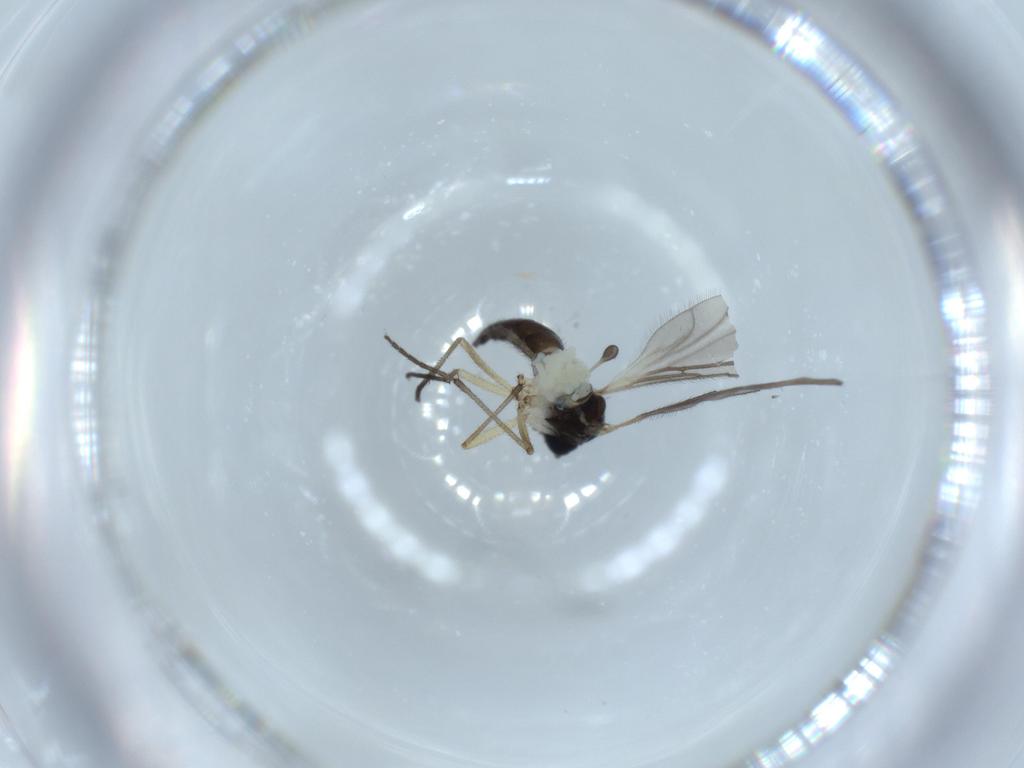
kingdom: Animalia
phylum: Arthropoda
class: Insecta
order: Diptera
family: Sciaridae
